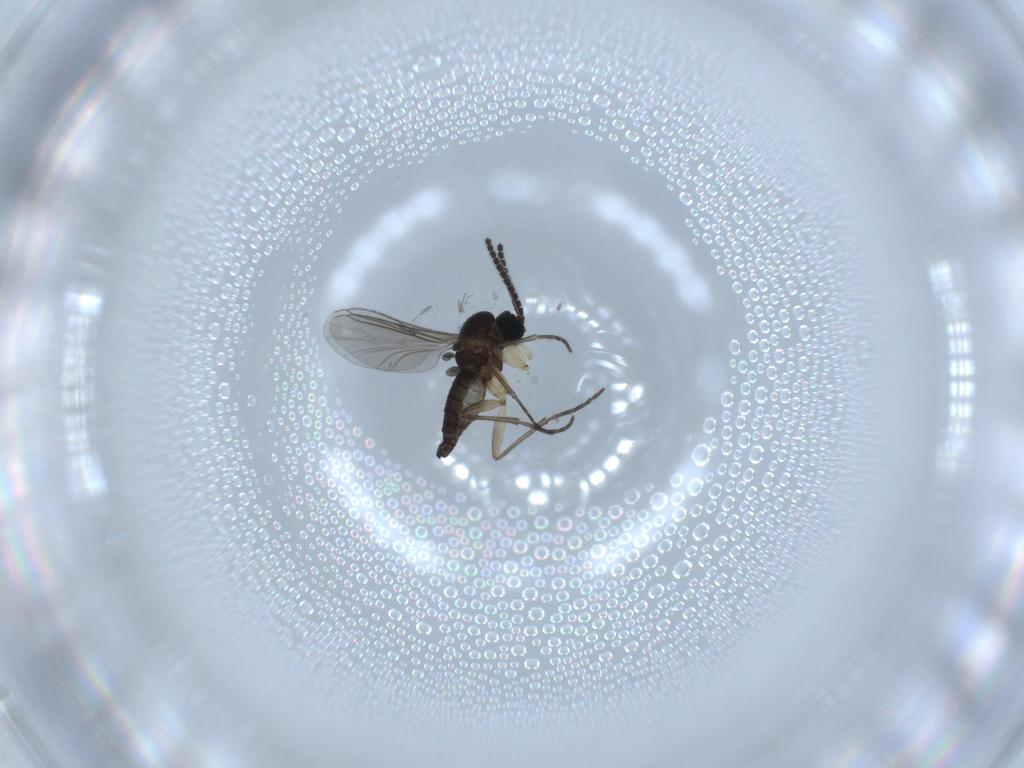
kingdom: Animalia
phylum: Arthropoda
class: Insecta
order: Diptera
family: Sciaridae
